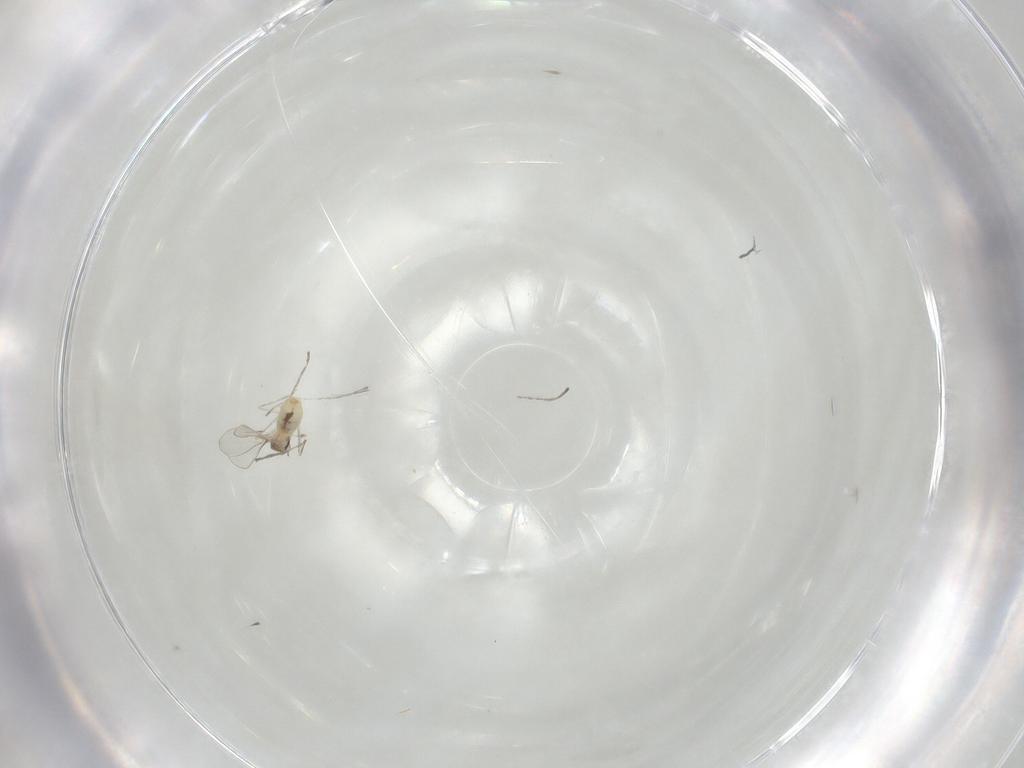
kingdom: Animalia
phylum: Arthropoda
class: Insecta
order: Diptera
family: Cecidomyiidae
